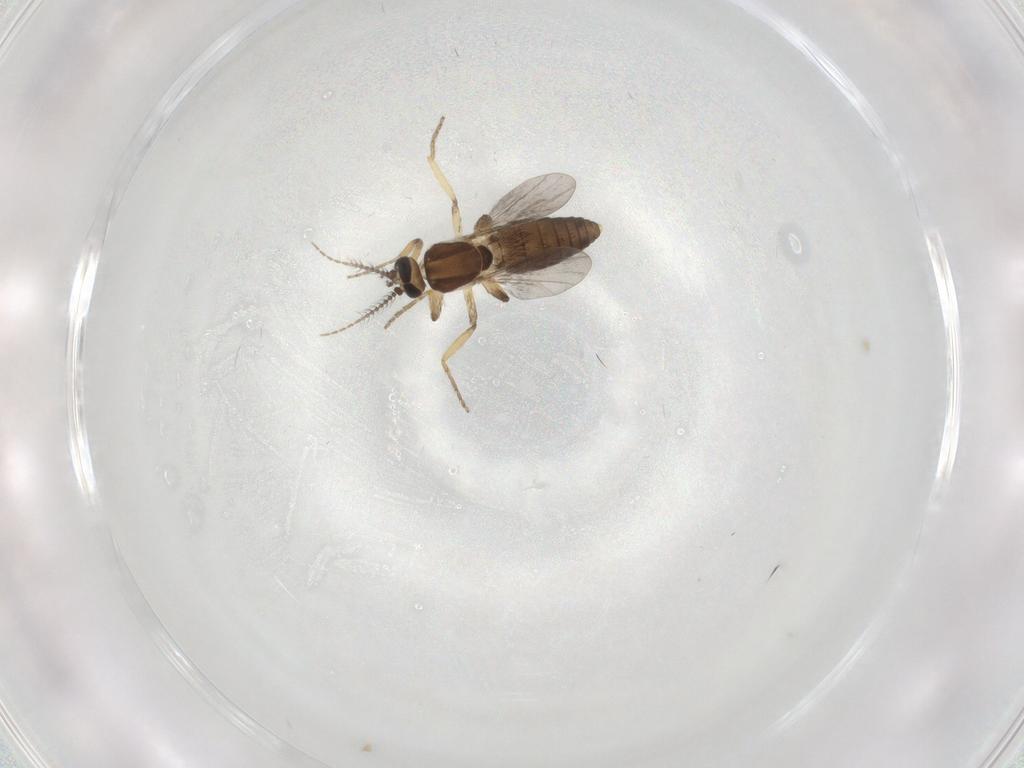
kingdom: Animalia
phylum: Arthropoda
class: Insecta
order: Diptera
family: Ceratopogonidae
